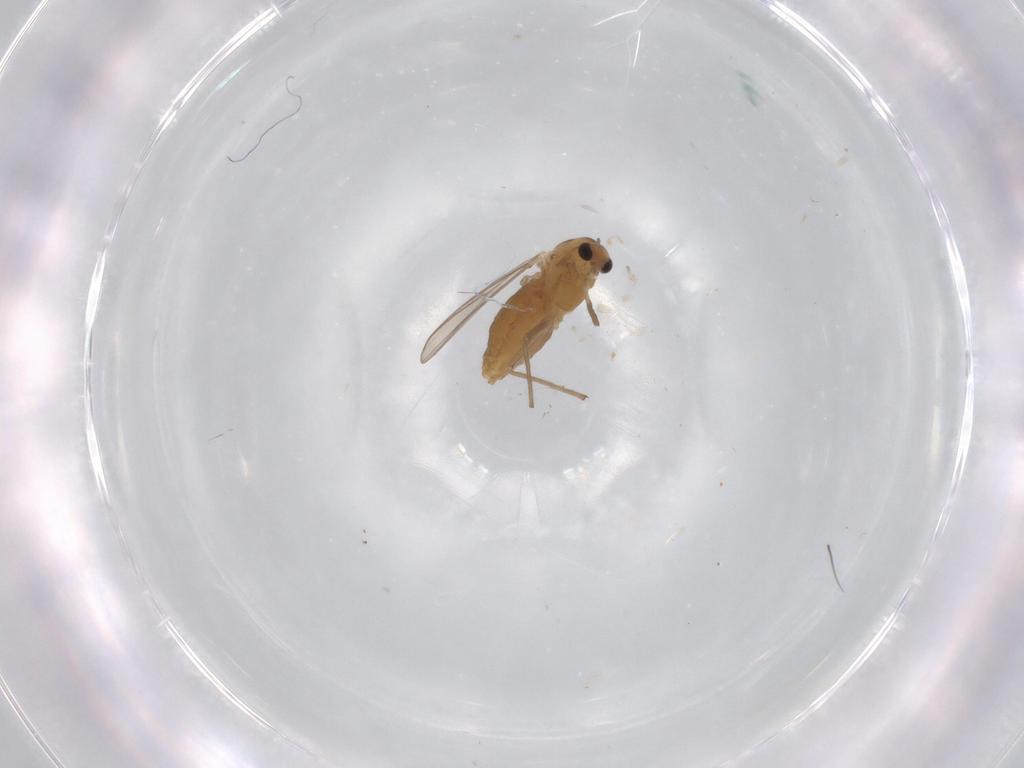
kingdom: Animalia
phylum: Arthropoda
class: Insecta
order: Diptera
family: Chironomidae
